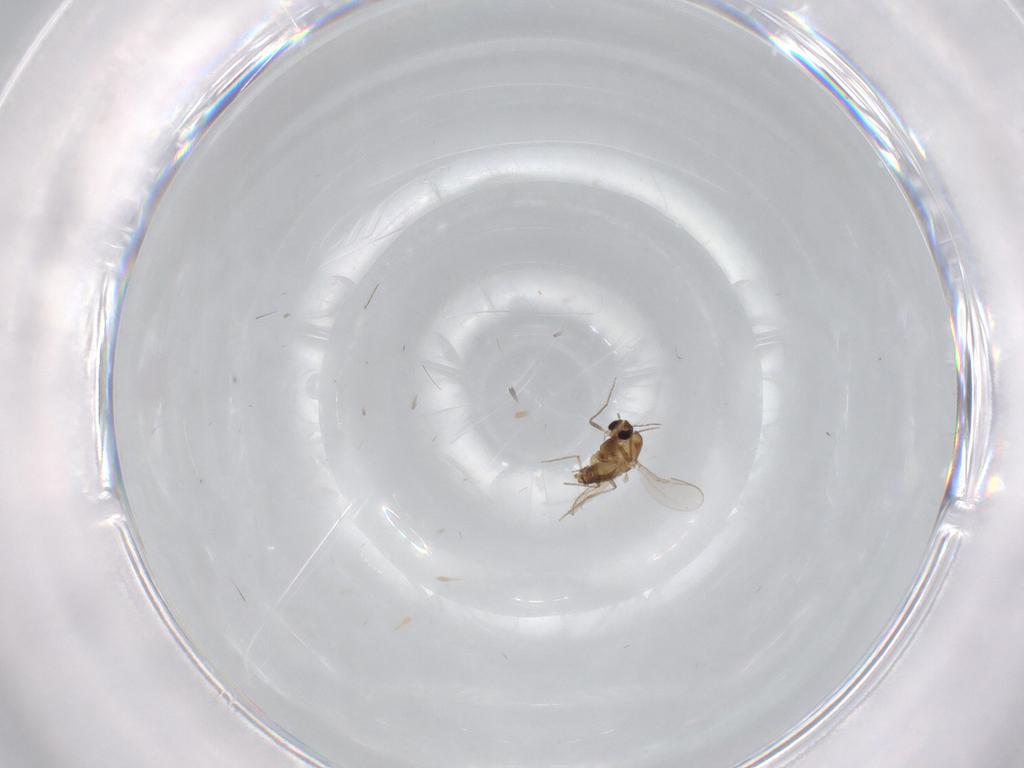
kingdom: Animalia
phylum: Arthropoda
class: Insecta
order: Diptera
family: Chironomidae
